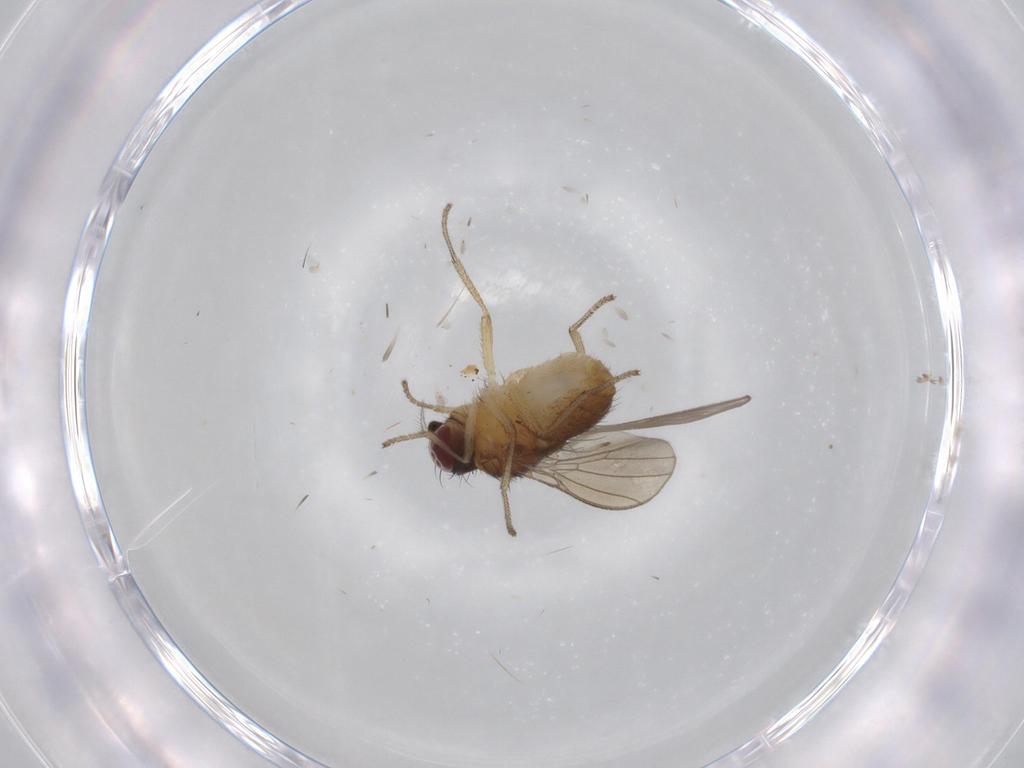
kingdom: Animalia
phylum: Arthropoda
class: Insecta
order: Diptera
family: Lauxaniidae
